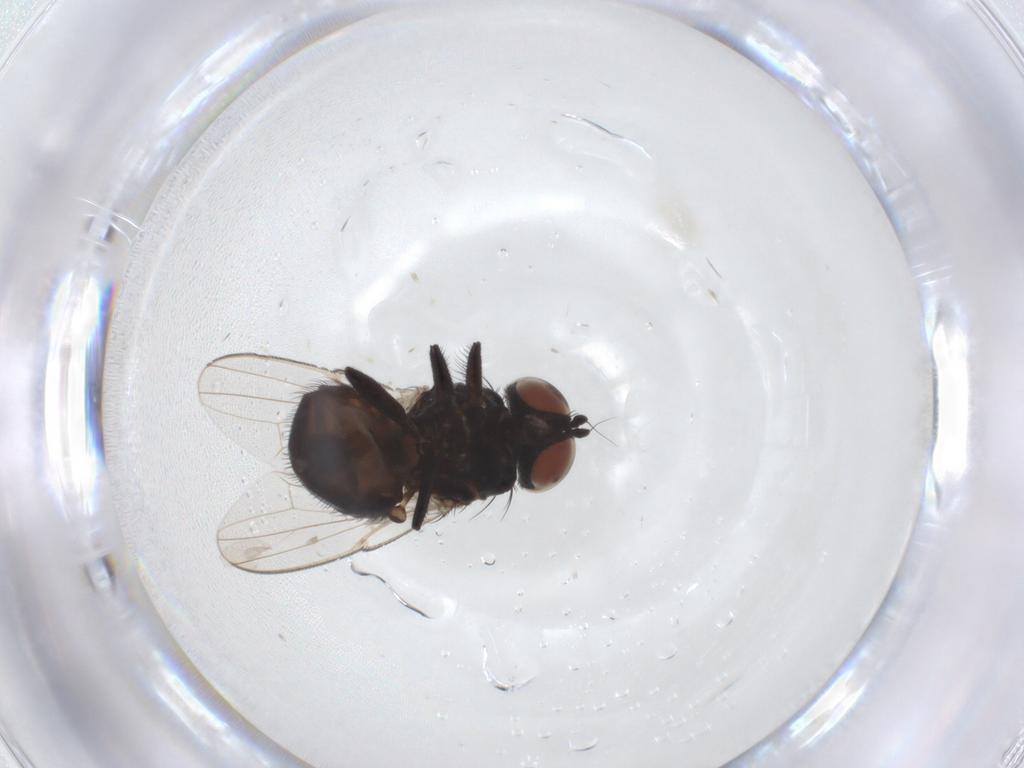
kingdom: Animalia
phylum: Arthropoda
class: Insecta
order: Diptera
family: Milichiidae
